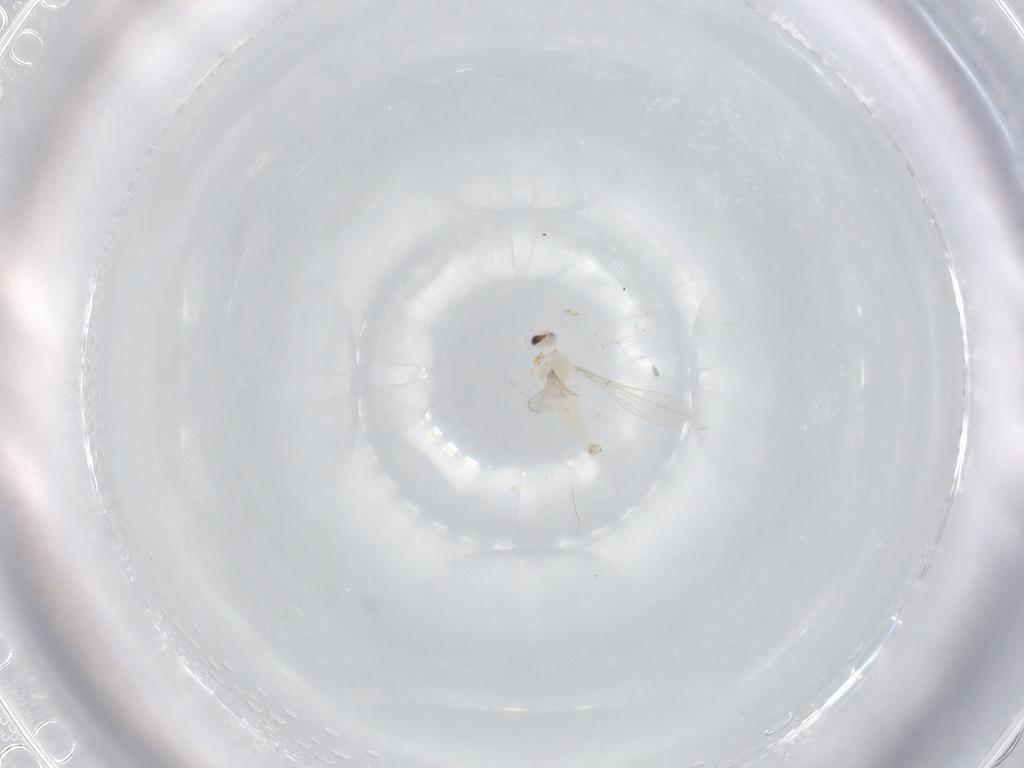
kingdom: Animalia
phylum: Arthropoda
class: Insecta
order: Diptera
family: Cecidomyiidae
